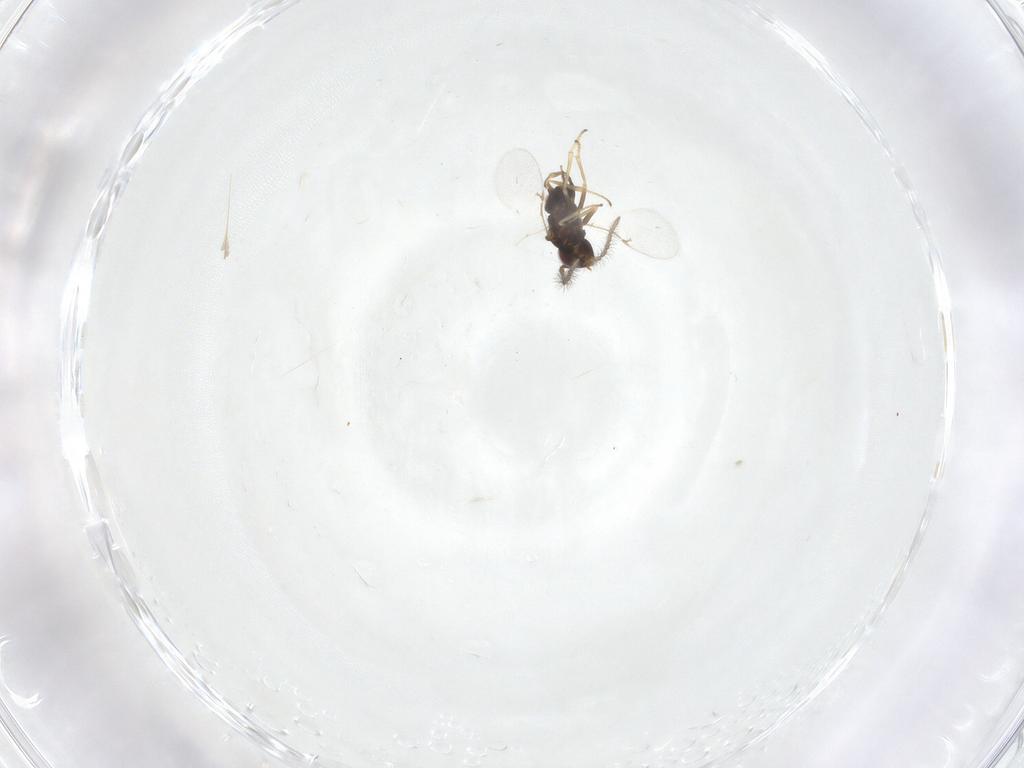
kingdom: Animalia
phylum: Arthropoda
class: Insecta
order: Hymenoptera
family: Encyrtidae
